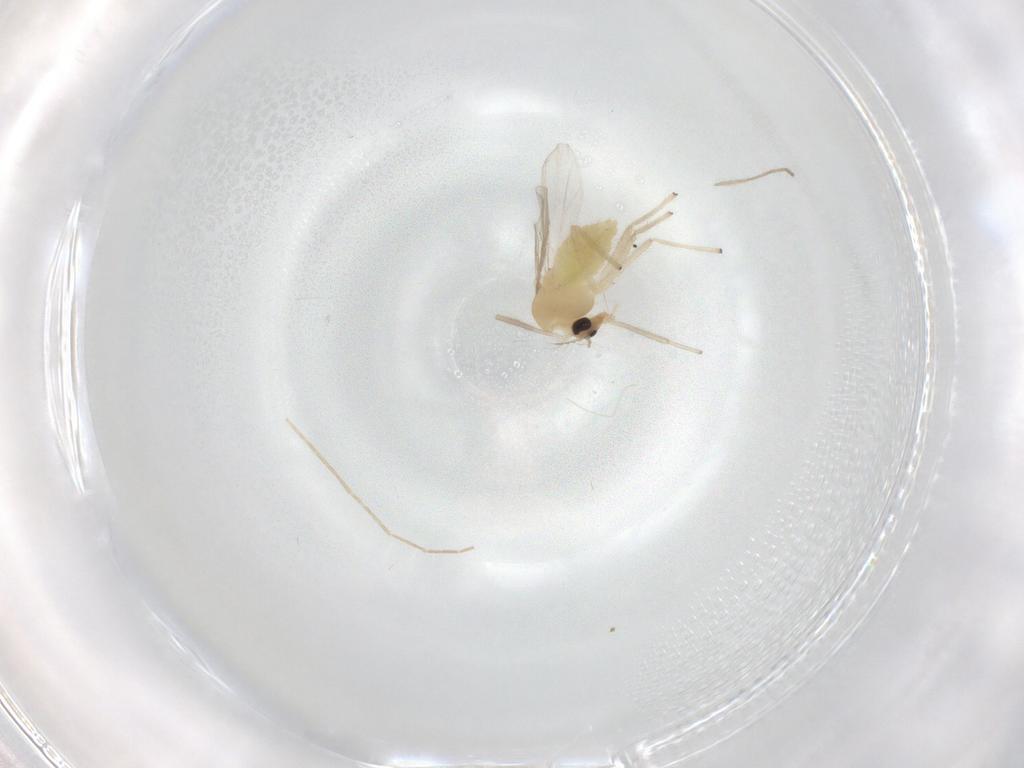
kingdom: Animalia
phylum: Arthropoda
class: Insecta
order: Diptera
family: Chironomidae
